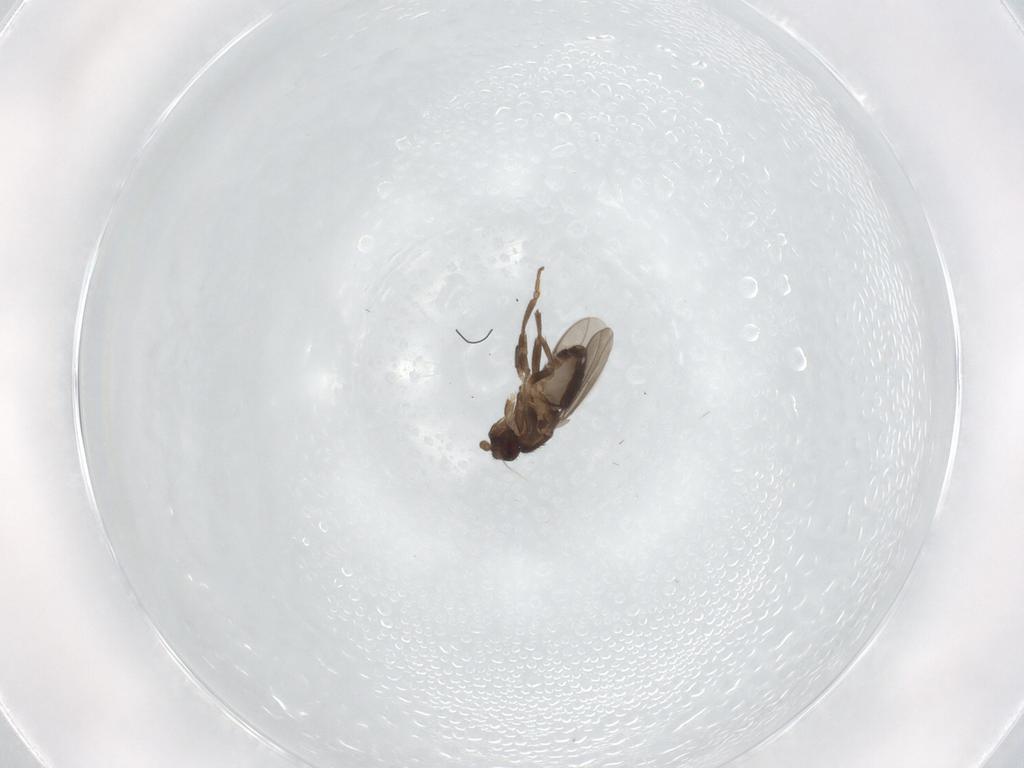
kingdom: Animalia
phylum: Arthropoda
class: Insecta
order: Diptera
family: Sphaeroceridae
